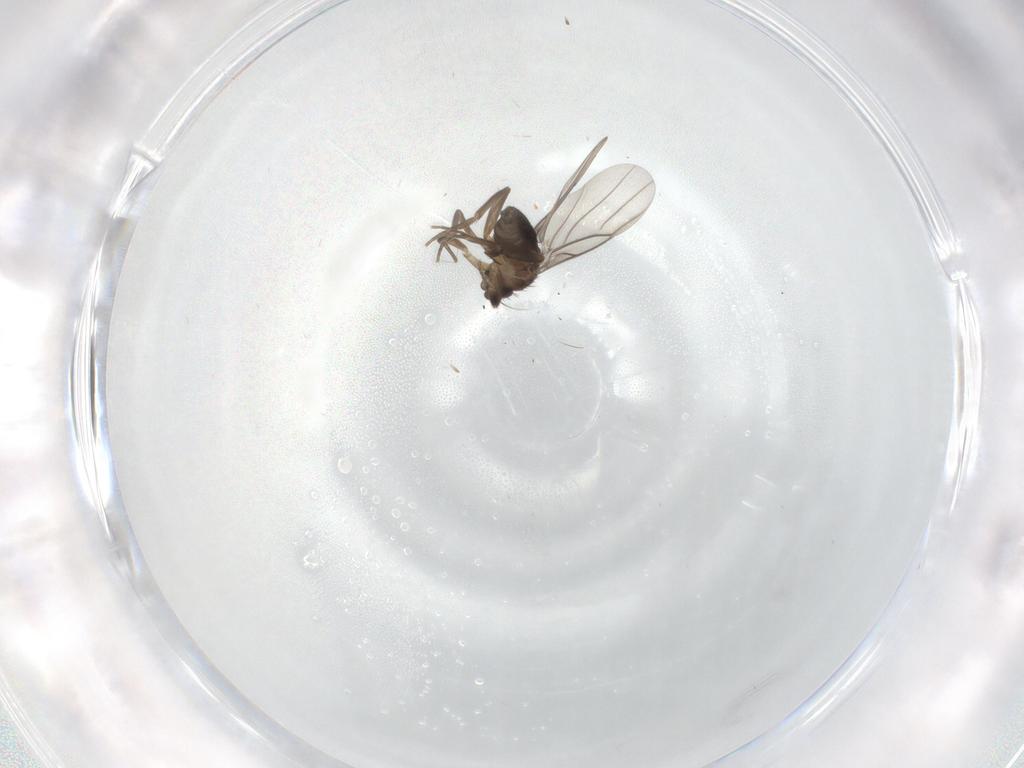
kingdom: Animalia
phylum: Arthropoda
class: Insecta
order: Diptera
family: Phoridae
